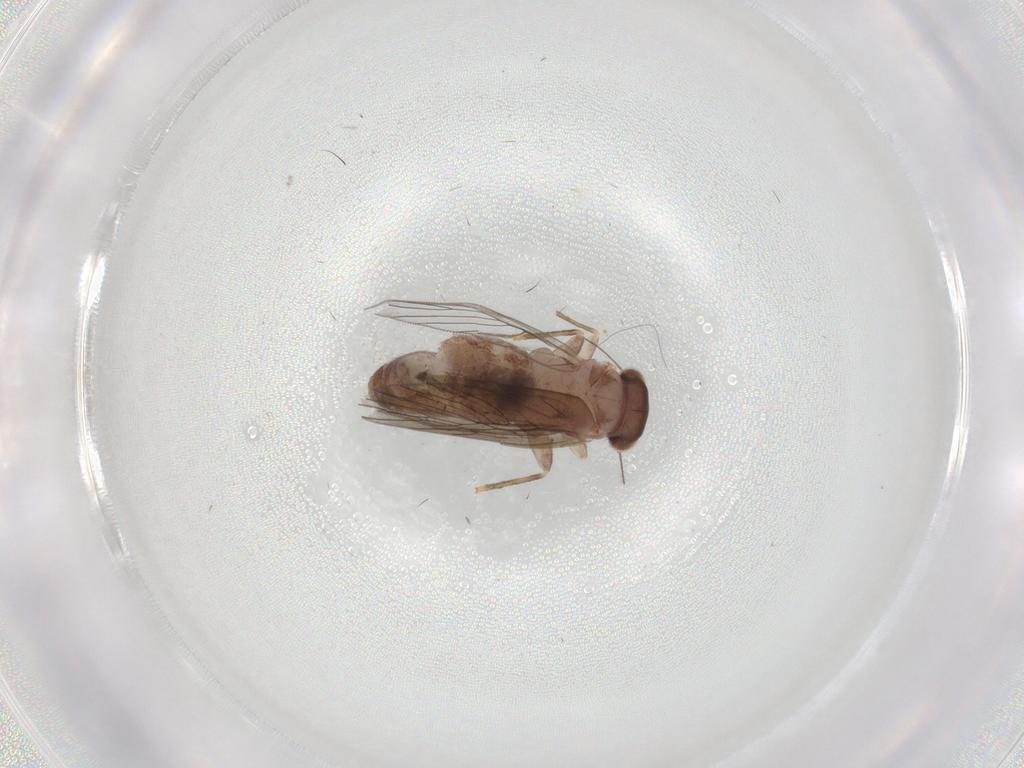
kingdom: Animalia
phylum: Arthropoda
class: Insecta
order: Psocodea
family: Lepidopsocidae
